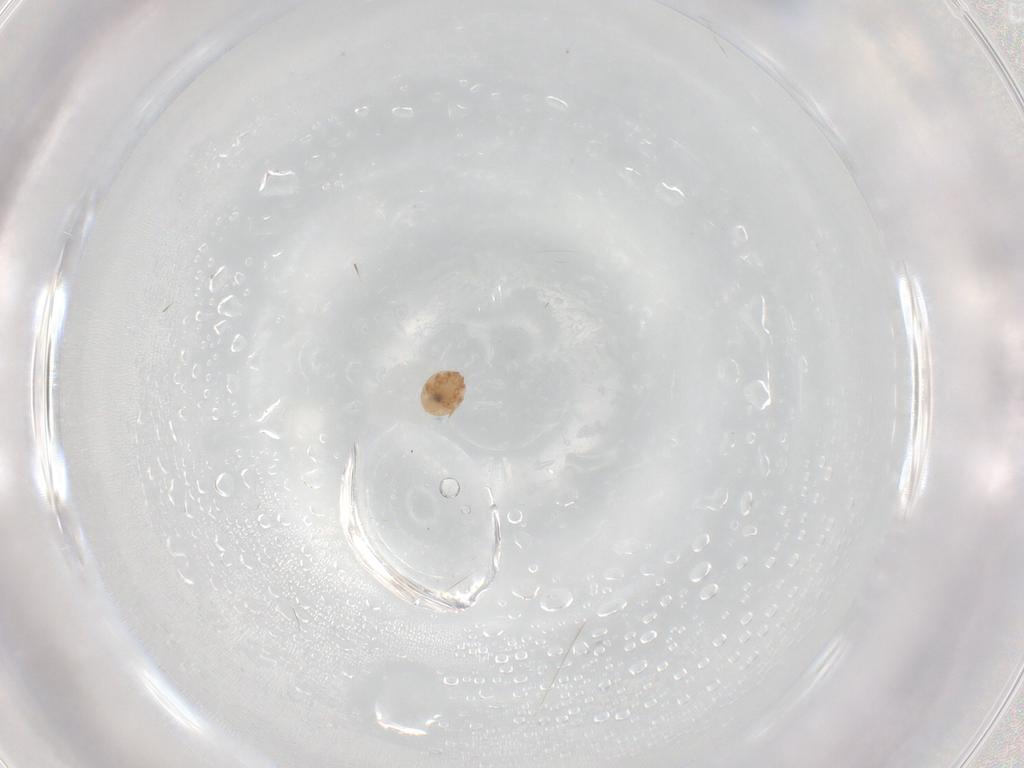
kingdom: Animalia
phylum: Arthropoda
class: Arachnida
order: Mesostigmata
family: Trematuridae
